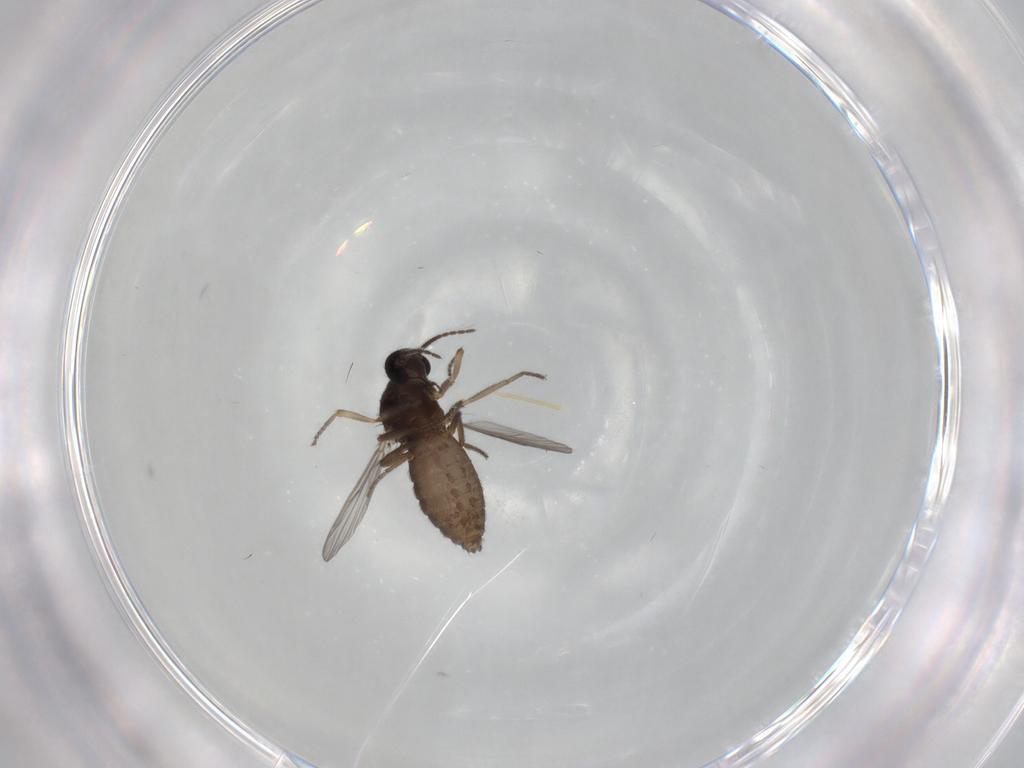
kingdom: Animalia
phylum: Arthropoda
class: Insecta
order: Diptera
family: Ceratopogonidae
